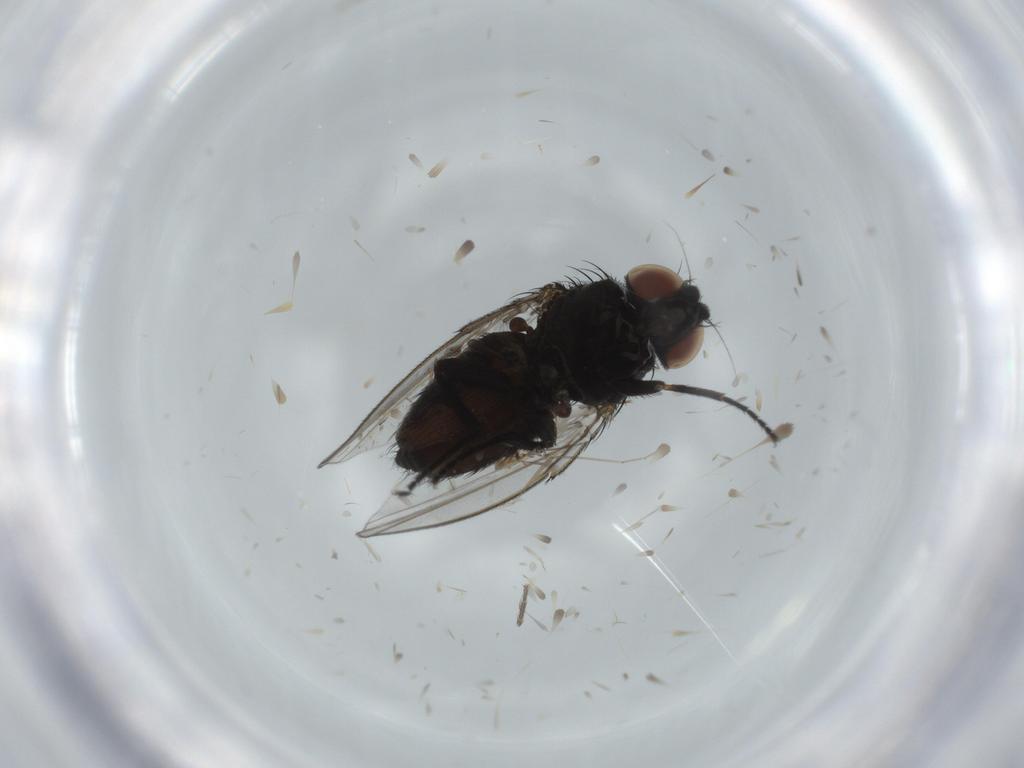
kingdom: Animalia
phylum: Arthropoda
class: Insecta
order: Diptera
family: Chironomidae
